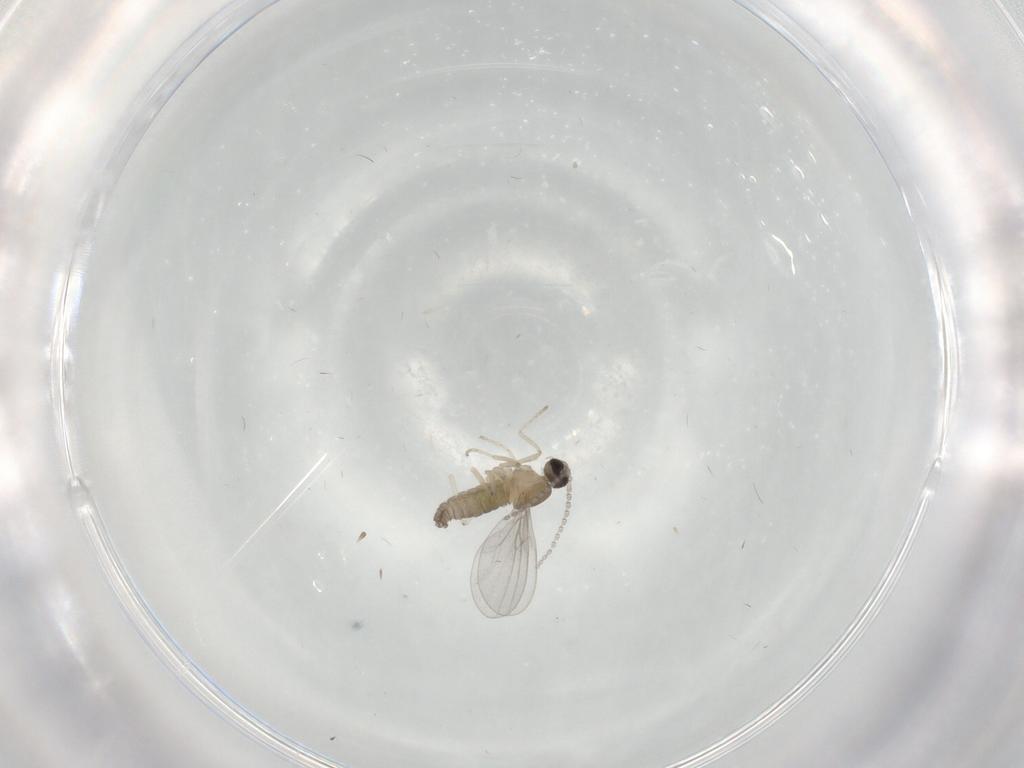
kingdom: Animalia
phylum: Arthropoda
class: Insecta
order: Diptera
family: Cecidomyiidae
